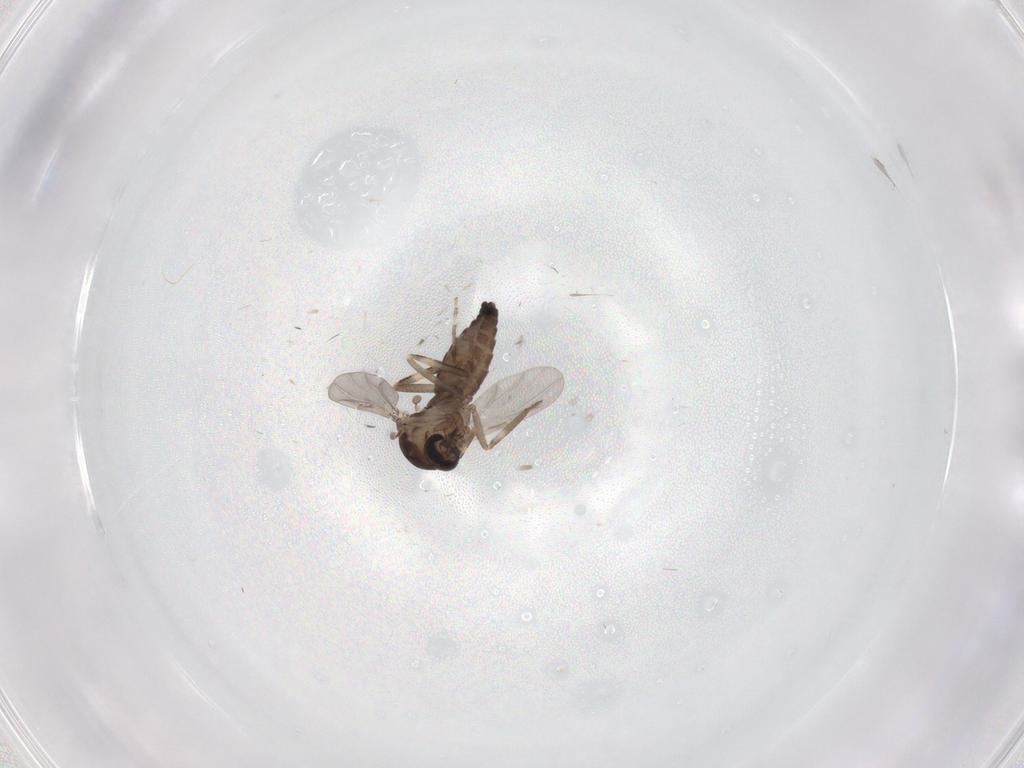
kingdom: Animalia
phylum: Arthropoda
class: Insecta
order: Diptera
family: Ceratopogonidae
